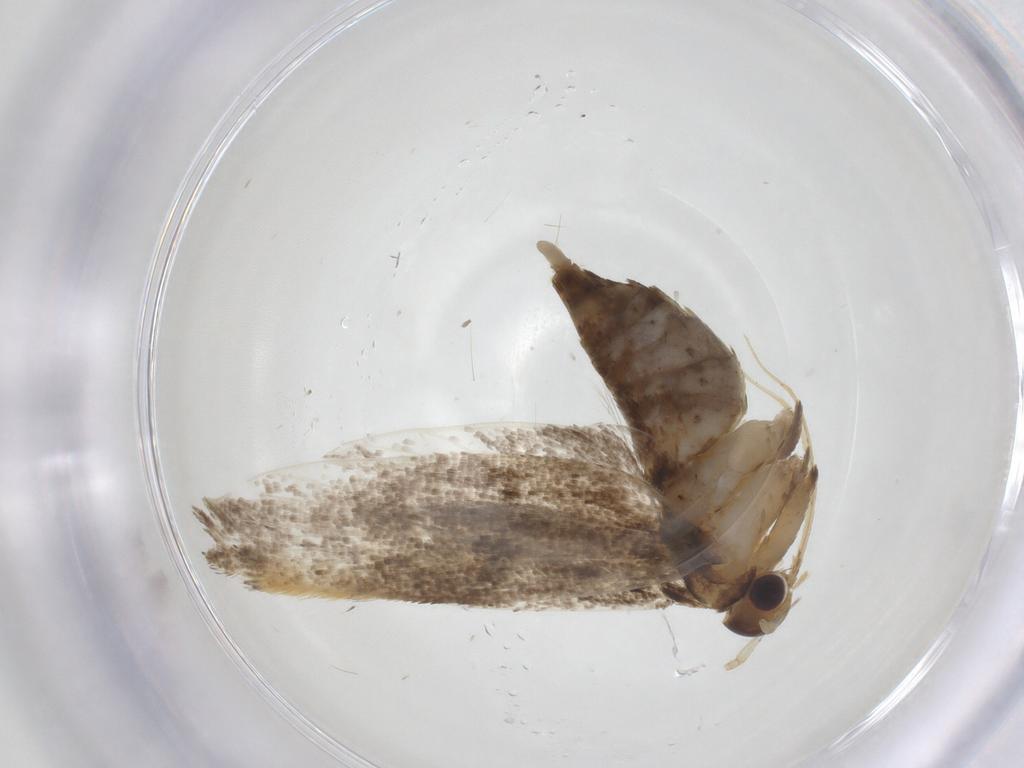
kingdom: Animalia
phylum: Arthropoda
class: Insecta
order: Lepidoptera
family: Lecithoceridae
